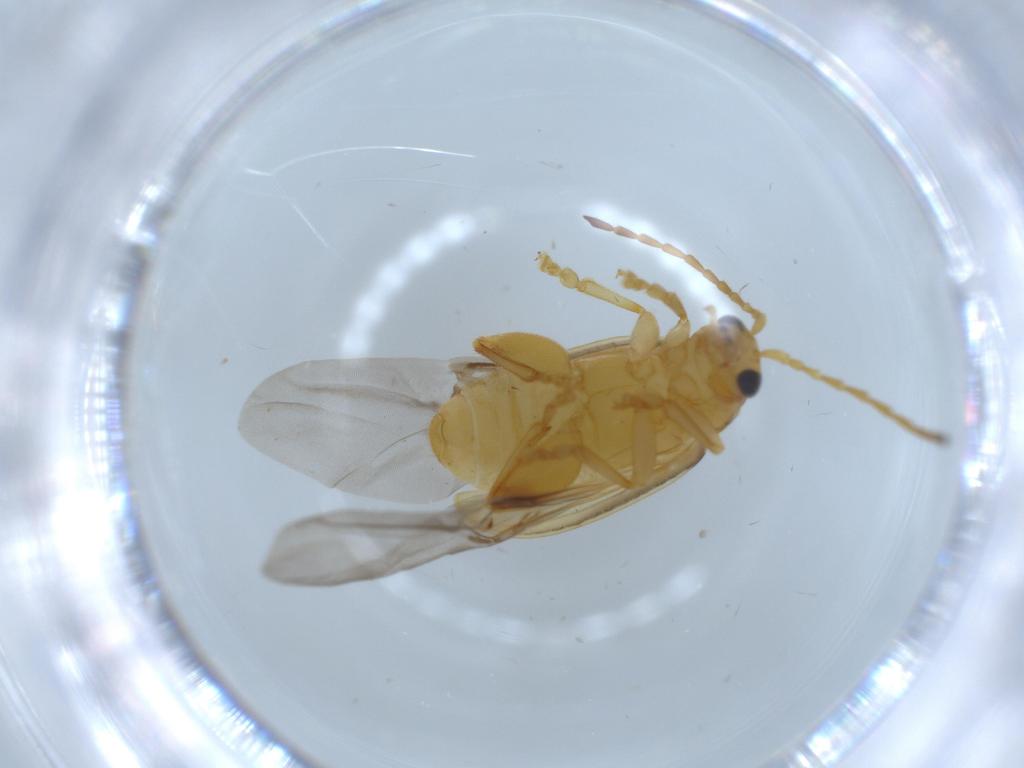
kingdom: Animalia
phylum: Arthropoda
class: Insecta
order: Coleoptera
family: Chrysomelidae
